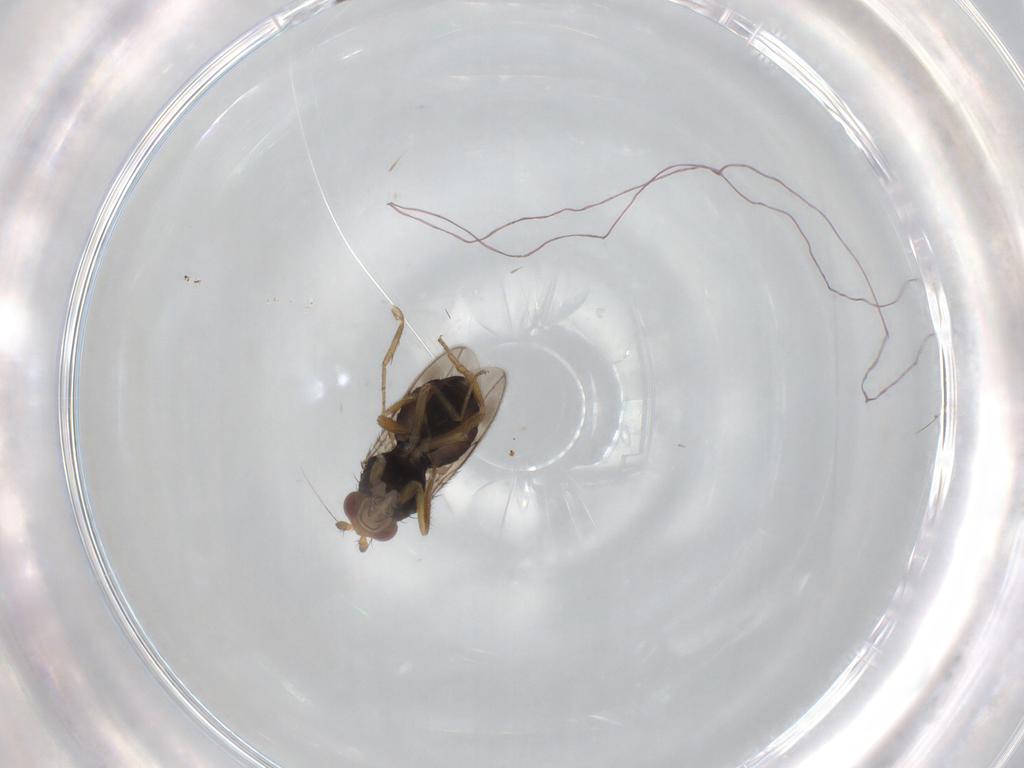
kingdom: Animalia
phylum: Arthropoda
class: Insecta
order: Diptera
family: Sphaeroceridae
